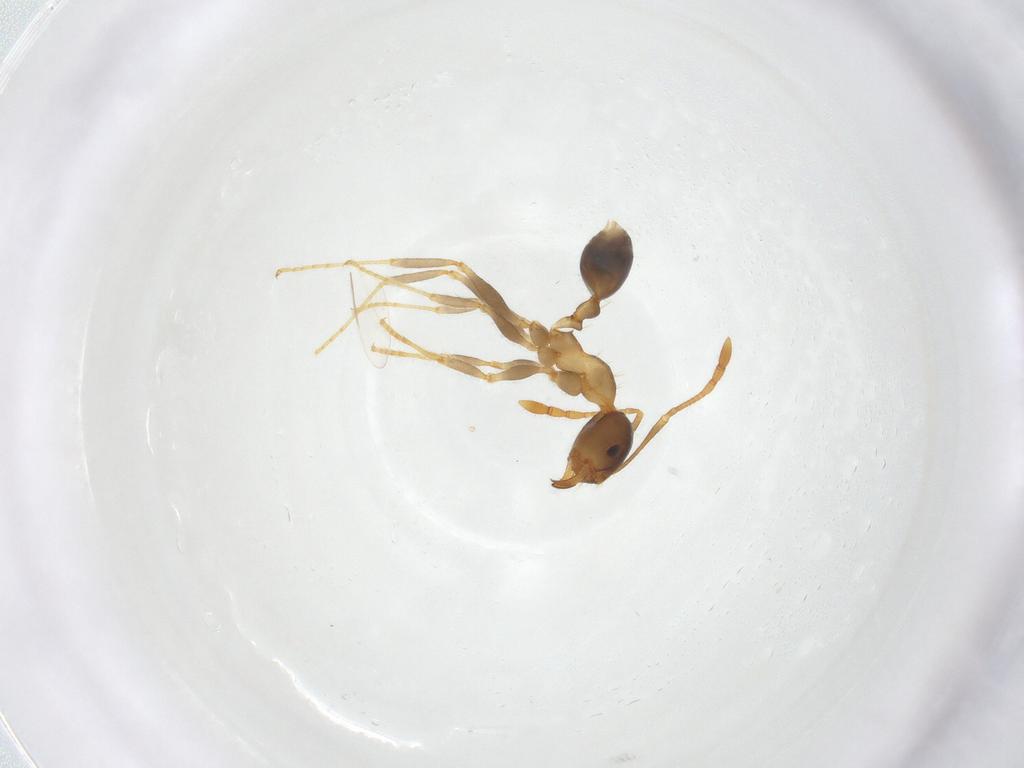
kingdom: Animalia
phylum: Arthropoda
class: Insecta
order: Hymenoptera
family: Formicidae
